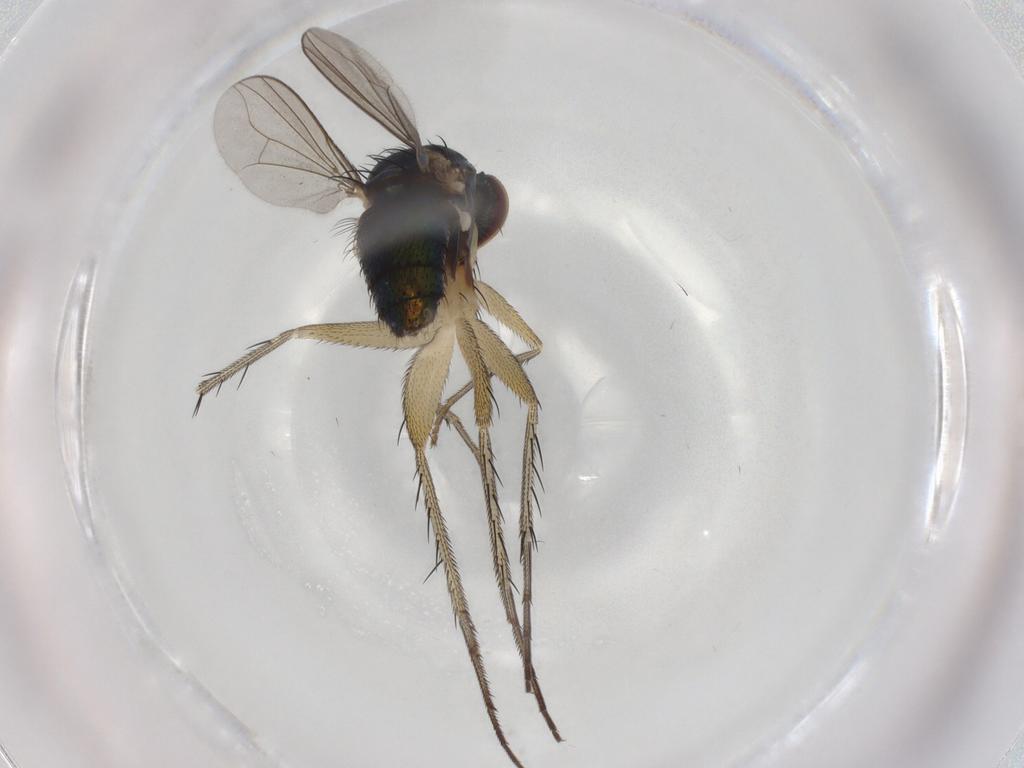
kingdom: Animalia
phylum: Arthropoda
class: Insecta
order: Diptera
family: Dolichopodidae
